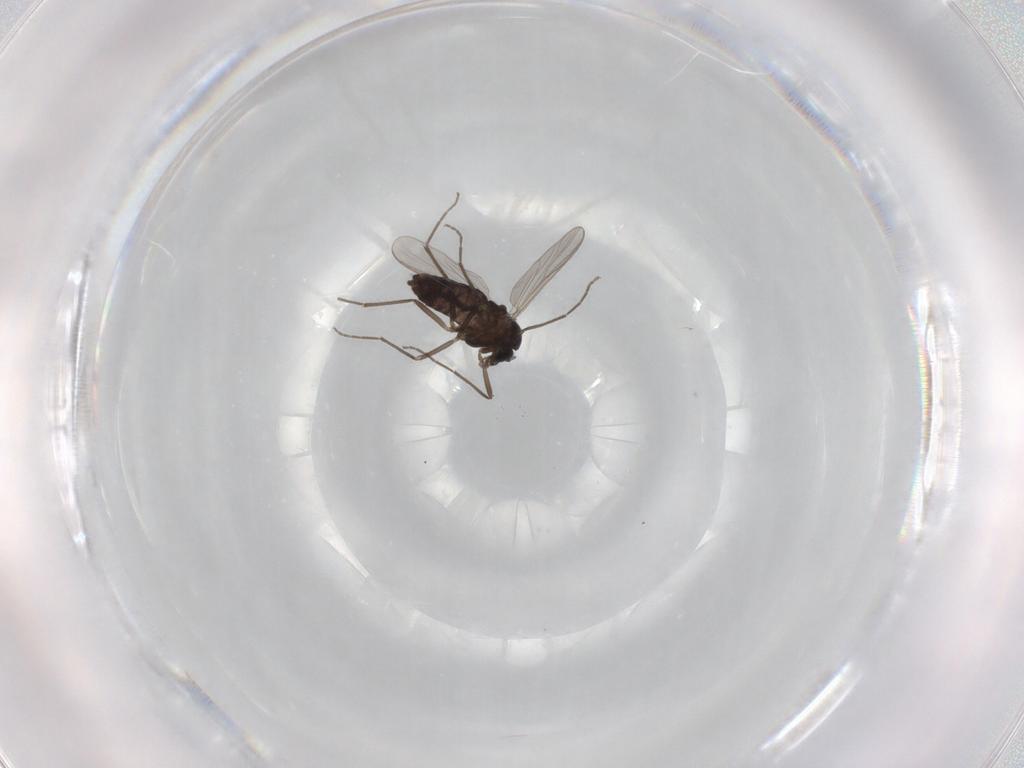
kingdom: Animalia
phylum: Arthropoda
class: Insecta
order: Diptera
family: Chironomidae
